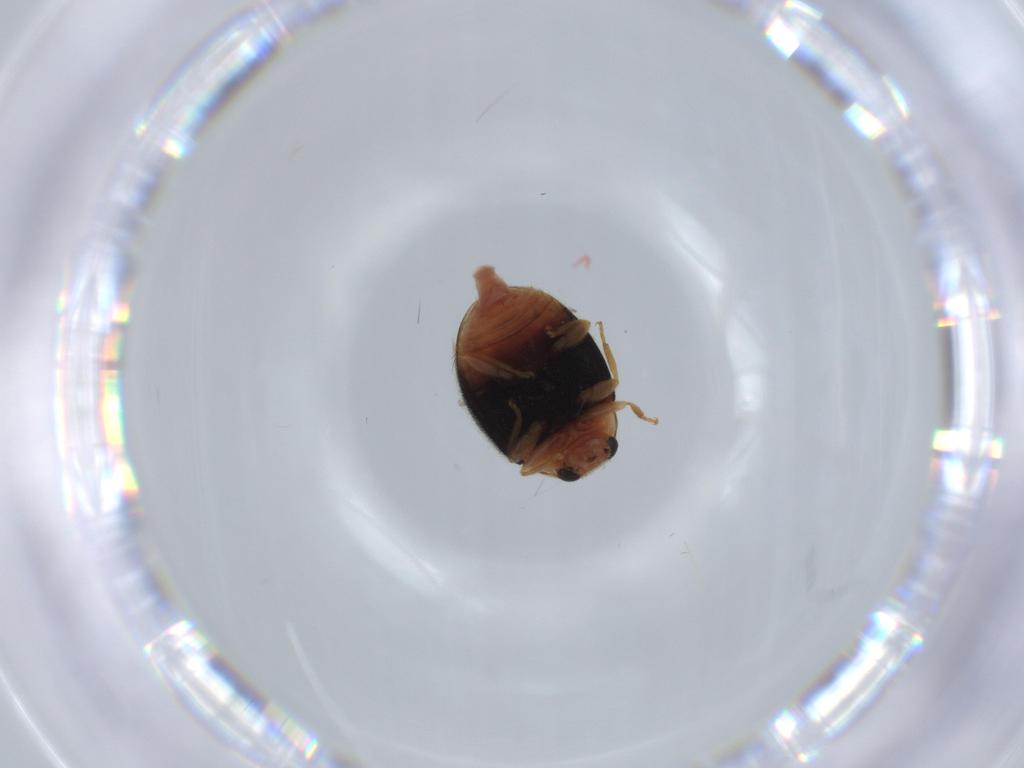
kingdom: Animalia
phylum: Arthropoda
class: Insecta
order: Coleoptera
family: Coccinellidae
